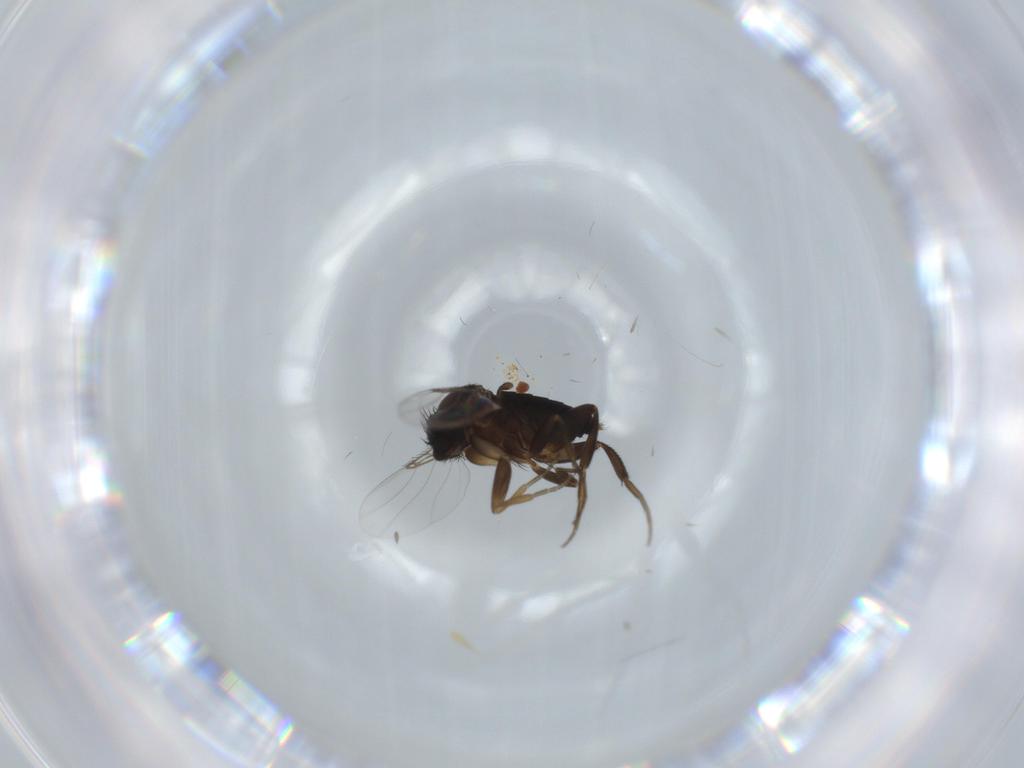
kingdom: Animalia
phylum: Arthropoda
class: Insecta
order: Diptera
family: Phoridae
